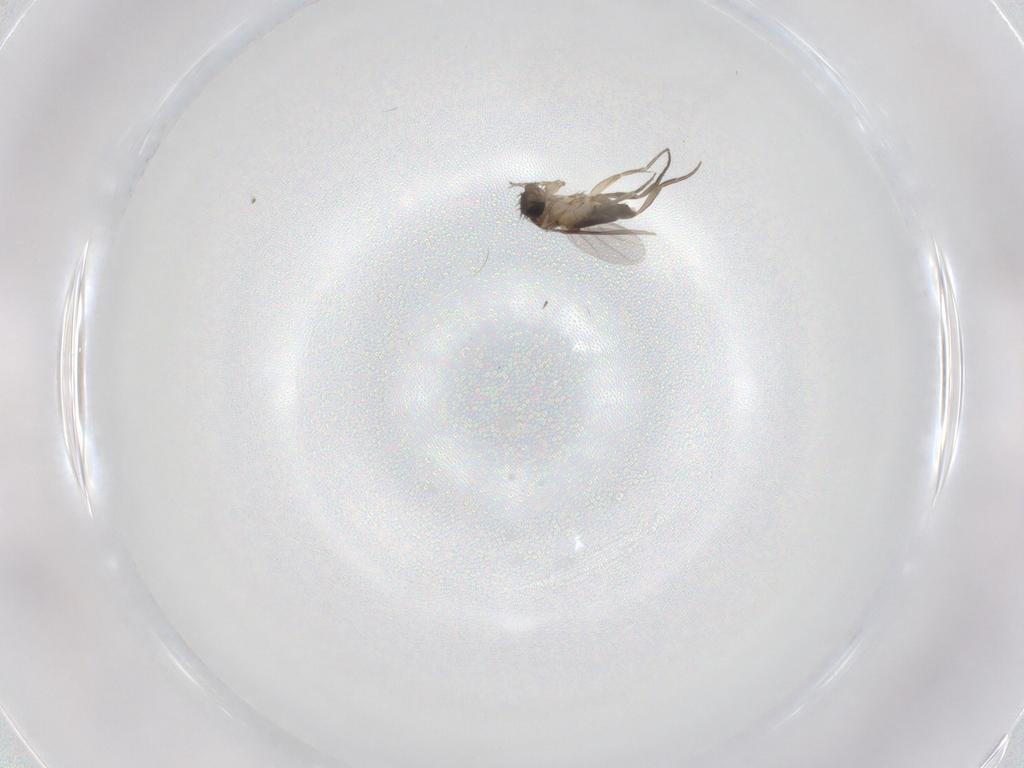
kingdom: Animalia
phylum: Arthropoda
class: Insecta
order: Diptera
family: Phoridae
